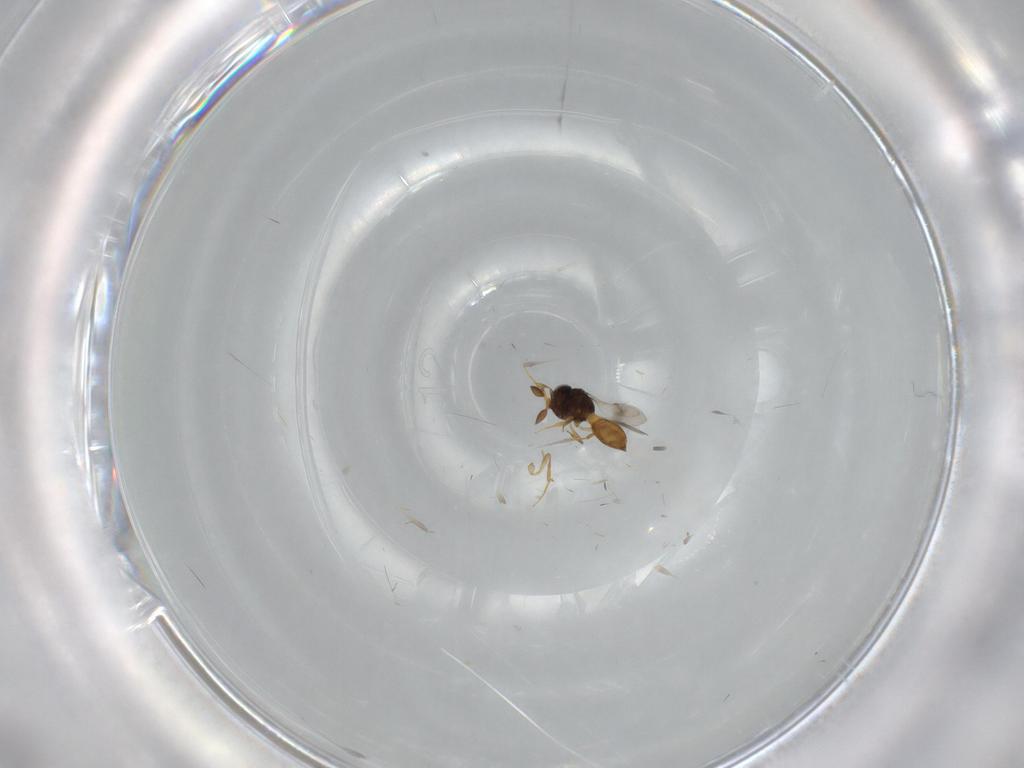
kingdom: Animalia
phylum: Arthropoda
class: Insecta
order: Hymenoptera
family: Scelionidae
